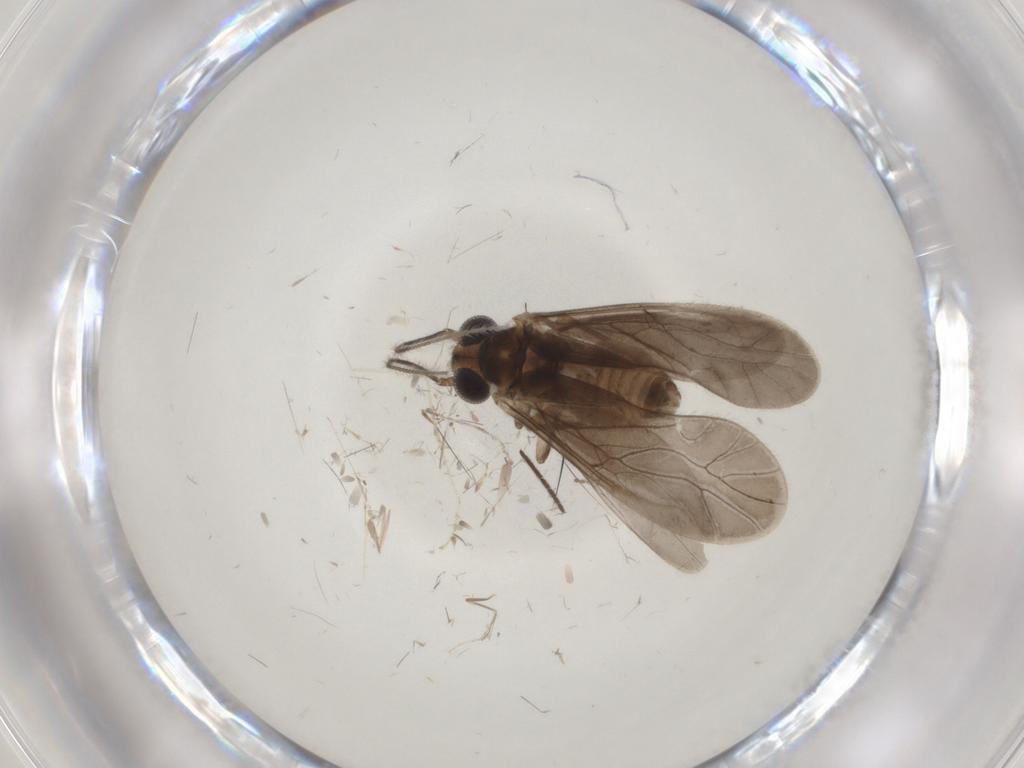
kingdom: Animalia
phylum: Arthropoda
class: Insecta
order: Psocodea
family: Caeciliusidae
